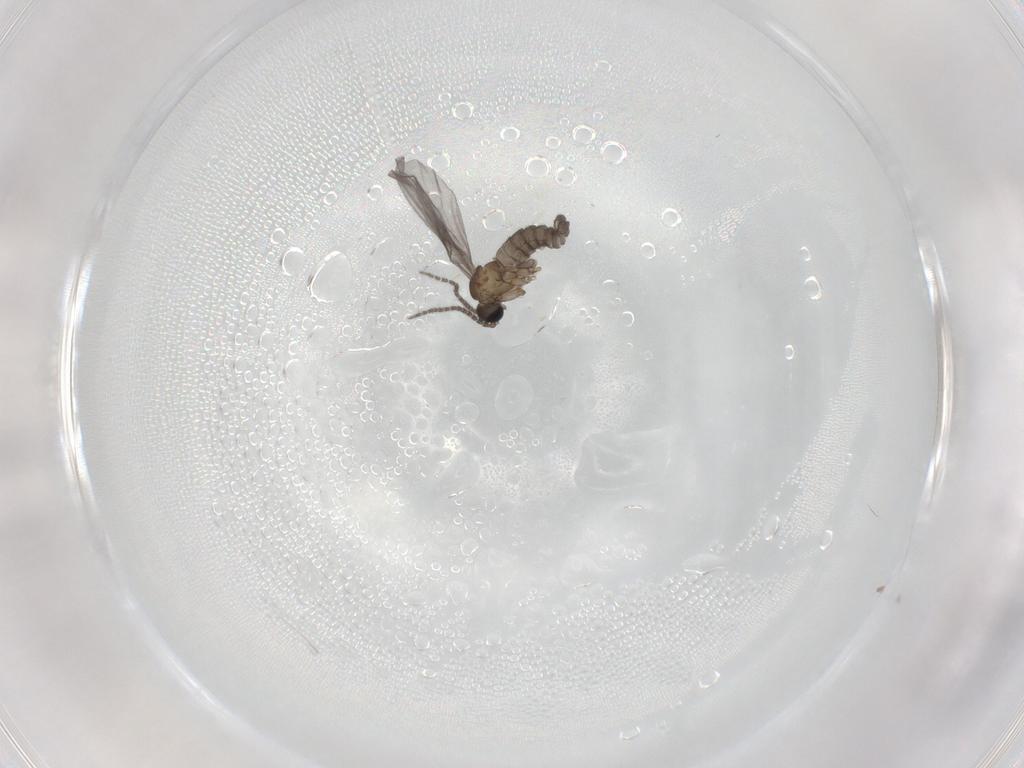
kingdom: Animalia
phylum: Arthropoda
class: Insecta
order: Diptera
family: Sciaridae
